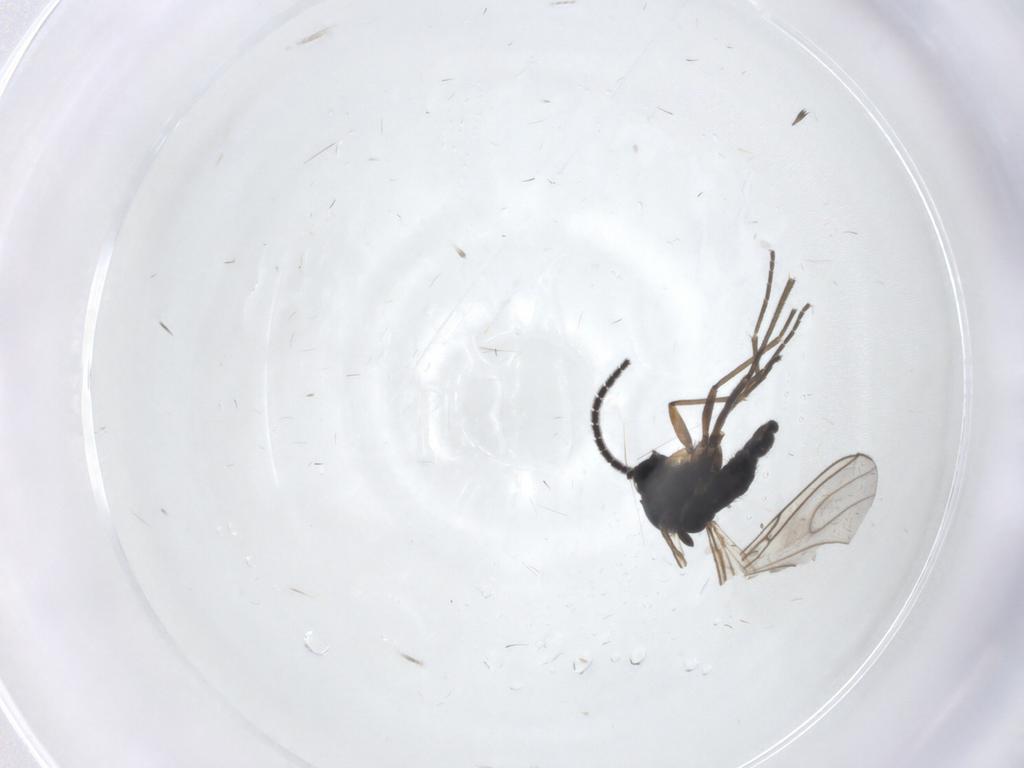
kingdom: Animalia
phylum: Arthropoda
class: Insecta
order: Diptera
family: Sciaridae
